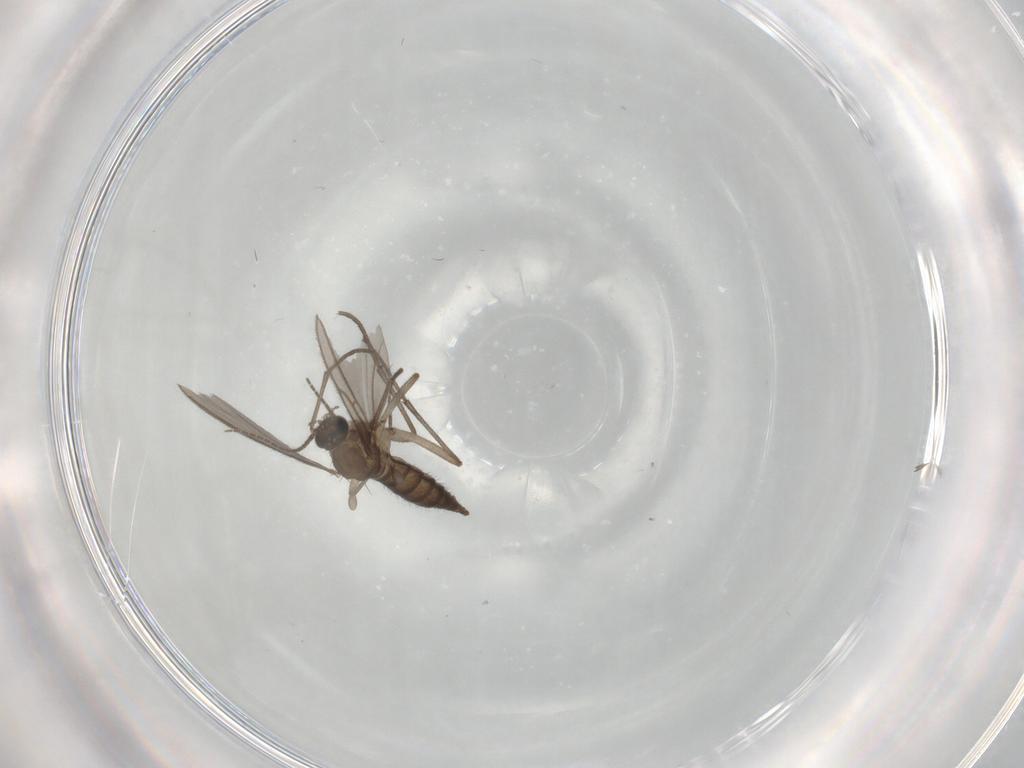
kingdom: Animalia
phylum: Arthropoda
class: Insecta
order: Diptera
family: Sciaridae
